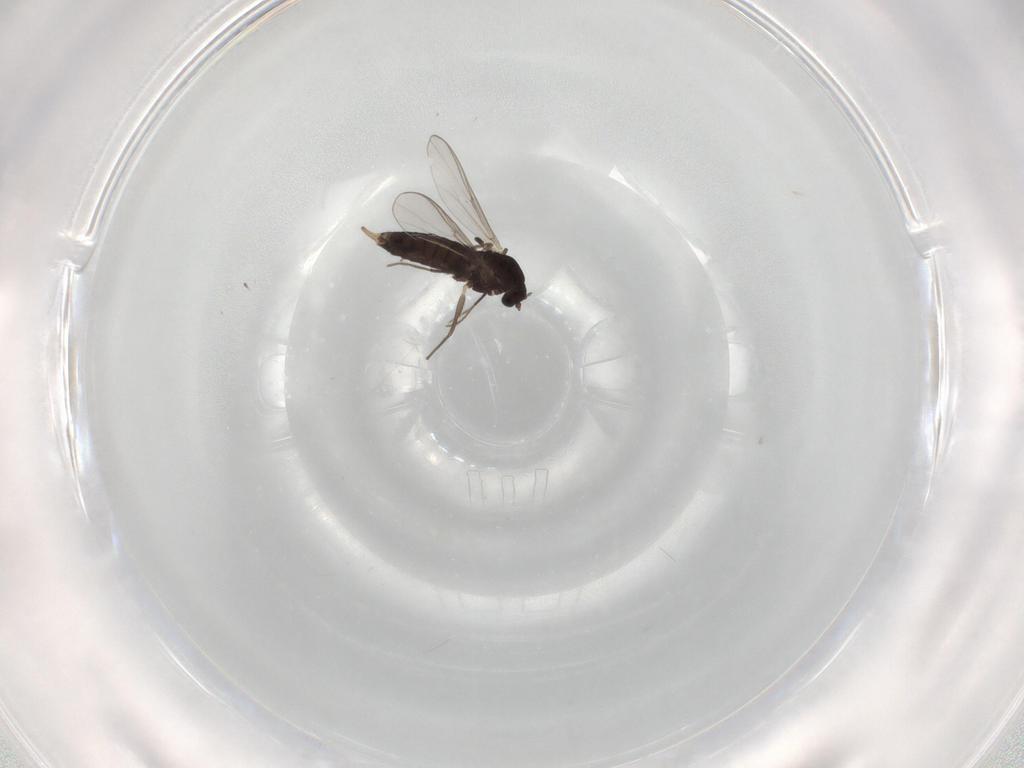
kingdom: Animalia
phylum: Arthropoda
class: Insecta
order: Diptera
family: Chironomidae
